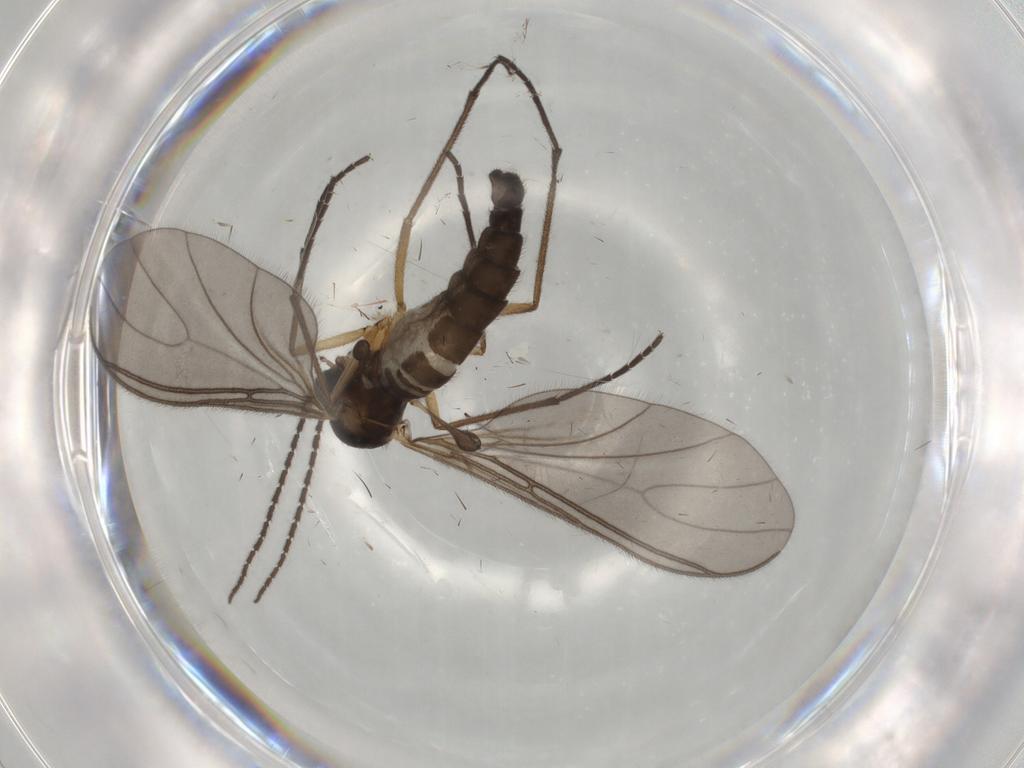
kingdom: Animalia
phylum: Arthropoda
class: Insecta
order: Diptera
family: Sciaridae
